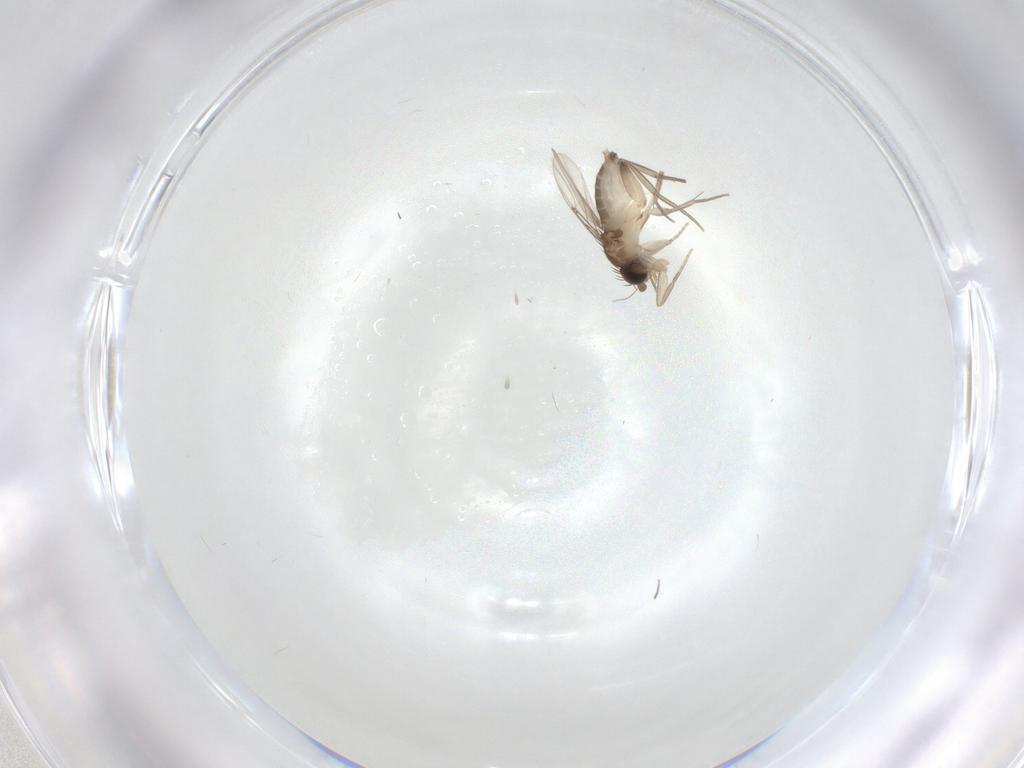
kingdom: Animalia
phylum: Arthropoda
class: Insecta
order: Diptera
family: Phoridae
